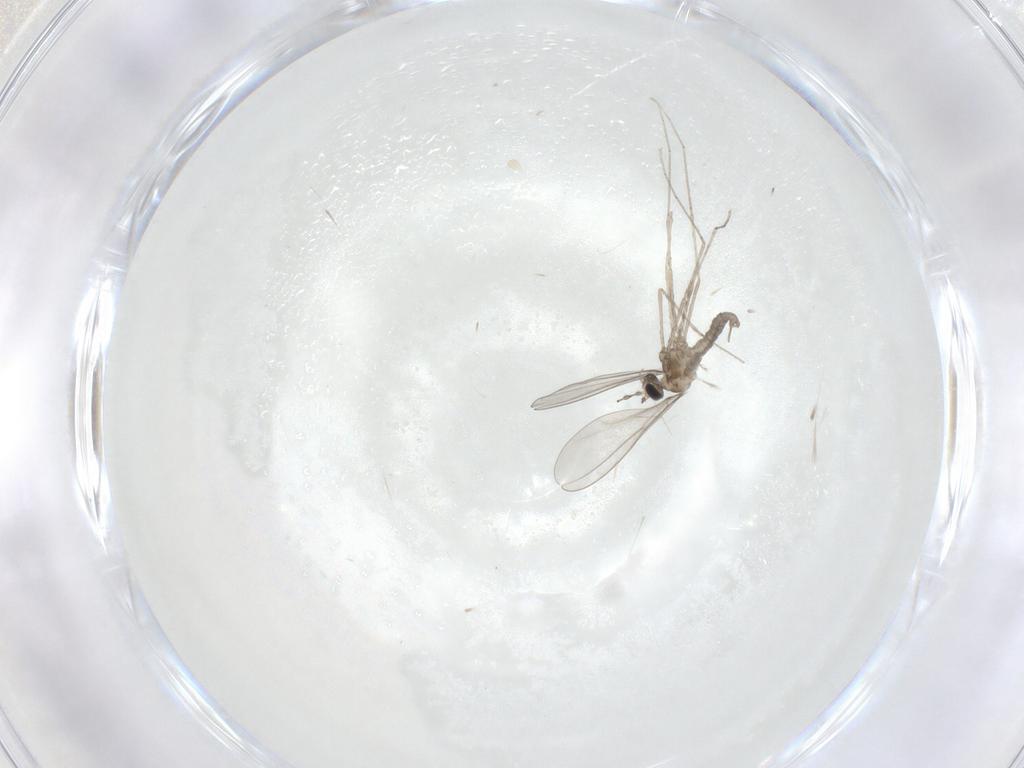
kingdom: Animalia
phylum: Arthropoda
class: Insecta
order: Diptera
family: Cecidomyiidae
